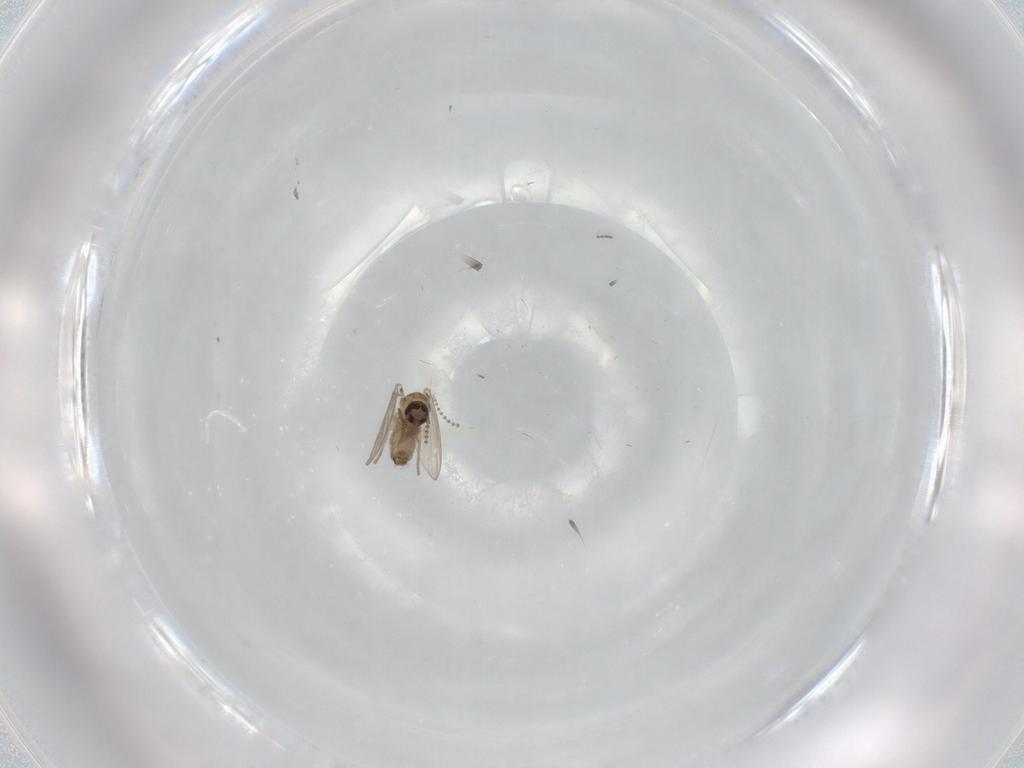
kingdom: Animalia
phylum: Arthropoda
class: Insecta
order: Diptera
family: Psychodidae
